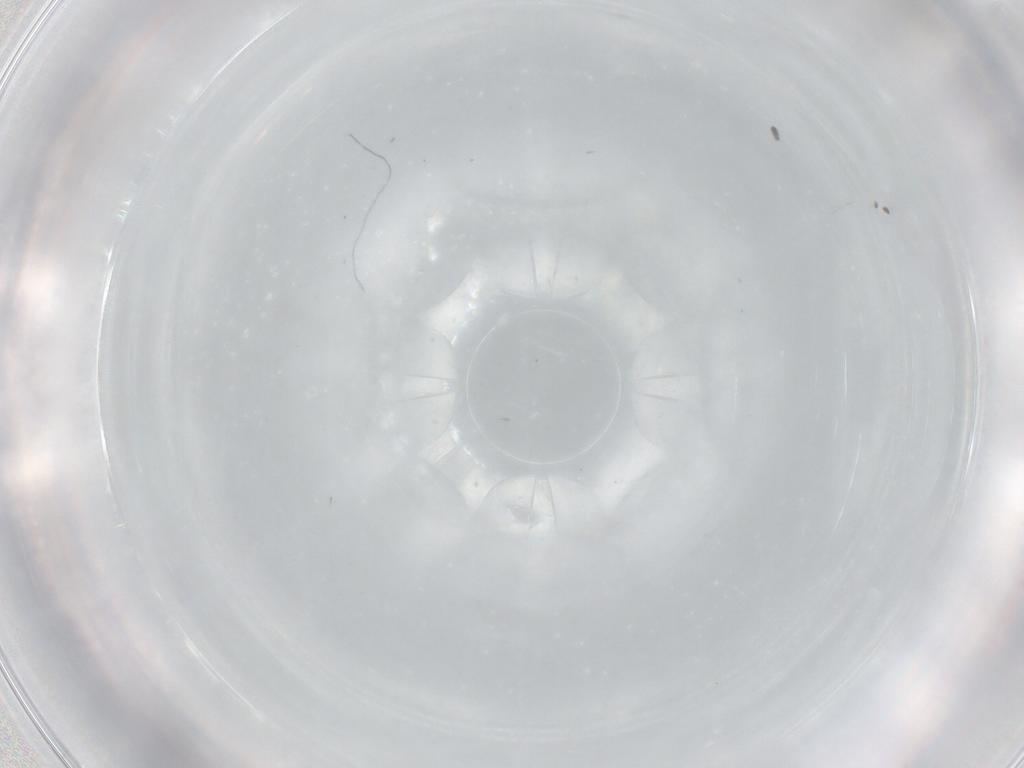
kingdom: Animalia
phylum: Arthropoda
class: Insecta
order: Diptera
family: Cecidomyiidae
